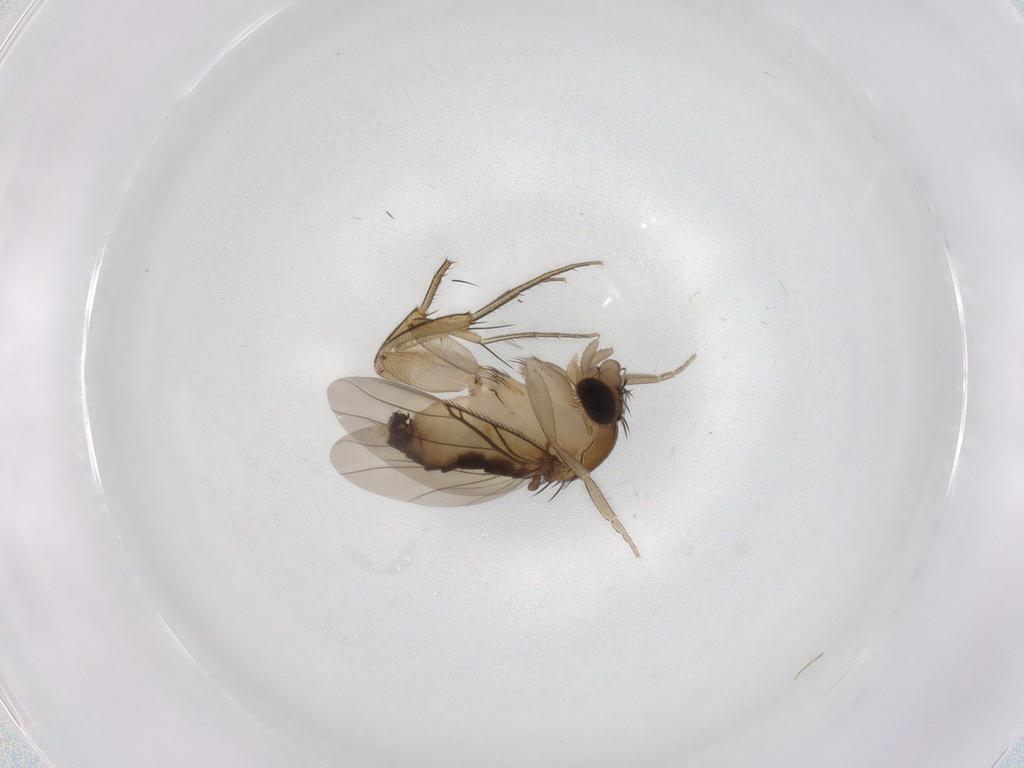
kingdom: Animalia
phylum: Arthropoda
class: Insecta
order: Diptera
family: Phoridae
